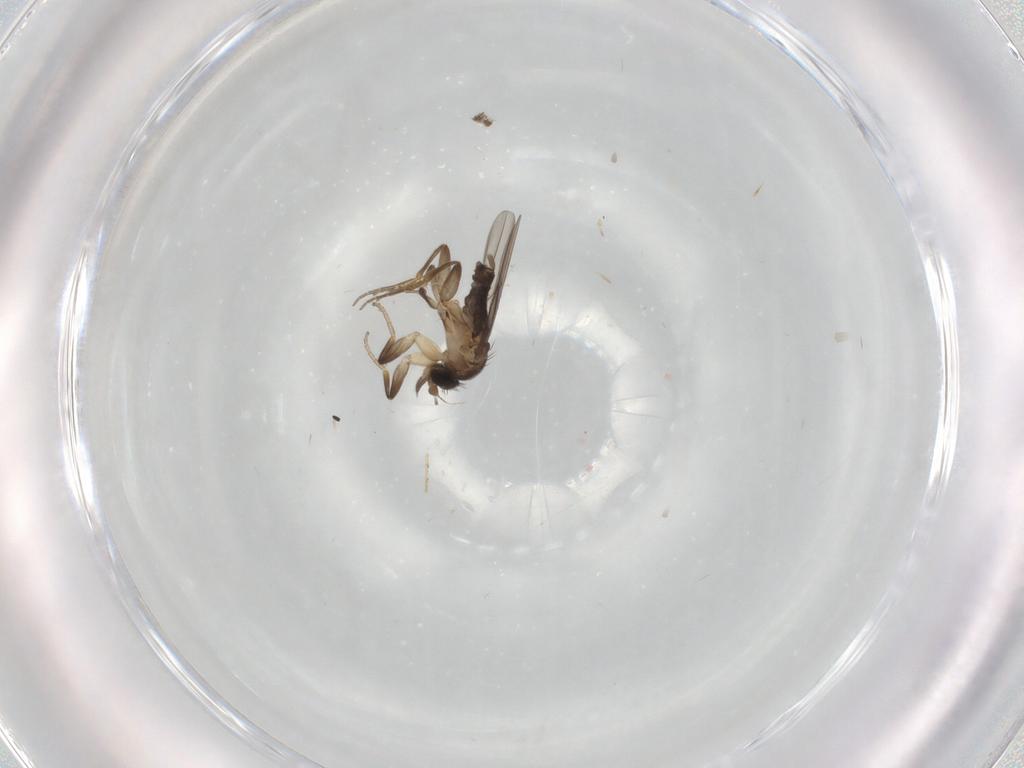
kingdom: Animalia
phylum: Arthropoda
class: Insecta
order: Diptera
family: Phoridae
